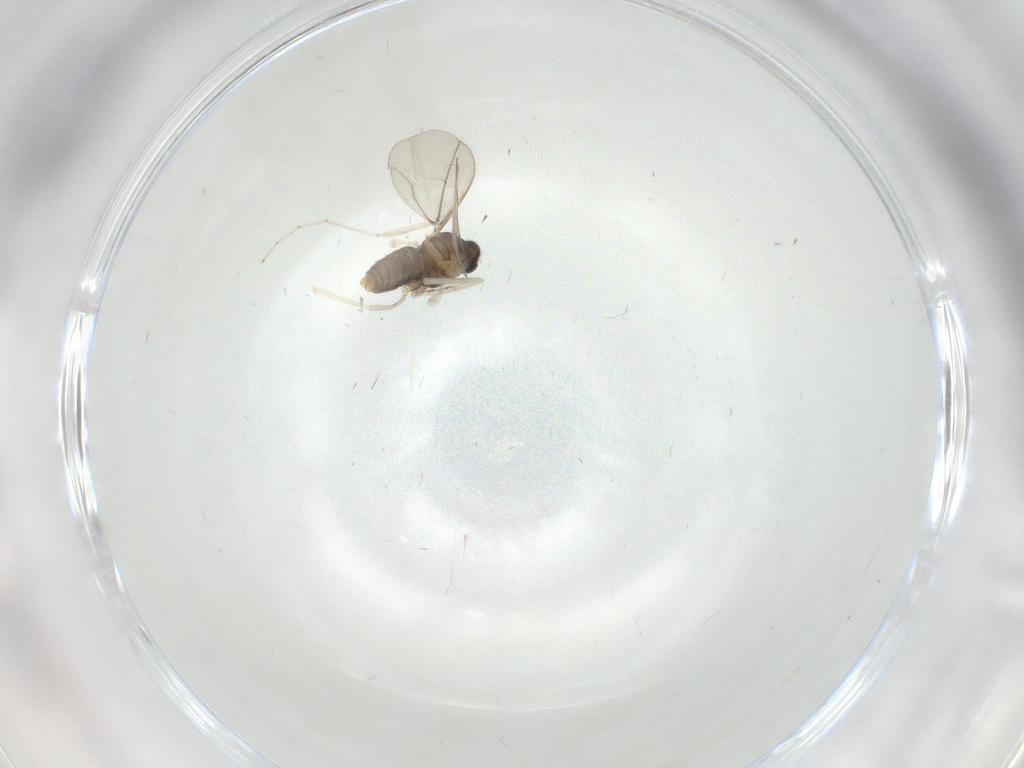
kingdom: Animalia
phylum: Arthropoda
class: Insecta
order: Diptera
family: Cecidomyiidae
